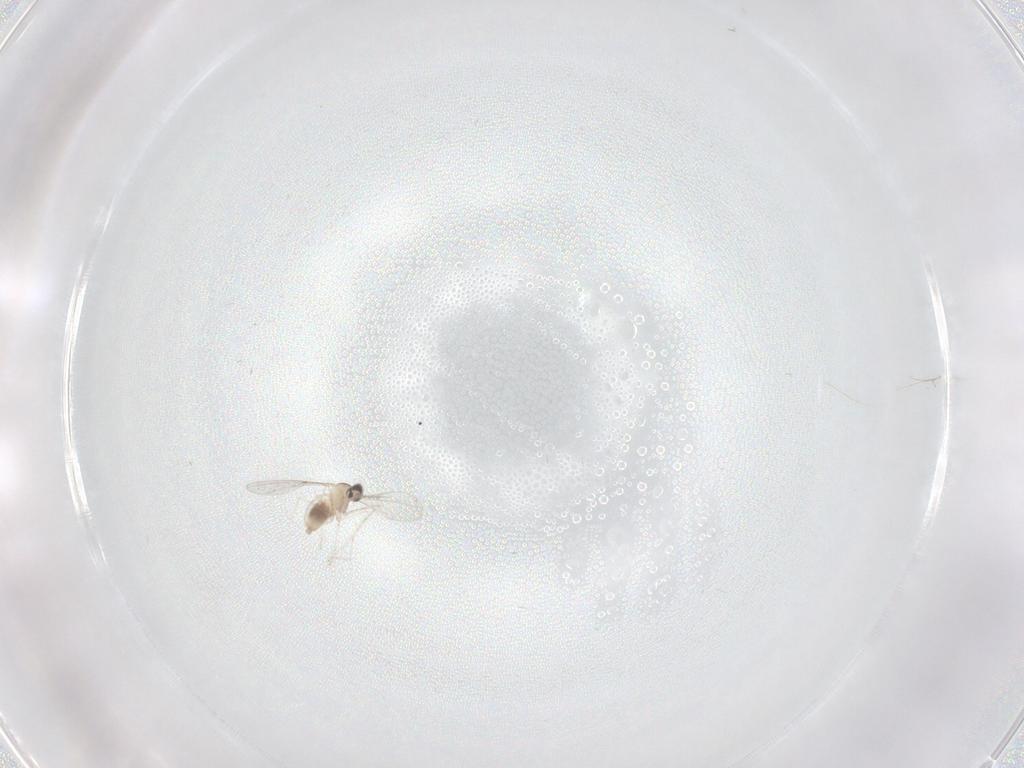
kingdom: Animalia
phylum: Arthropoda
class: Insecta
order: Diptera
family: Cecidomyiidae
